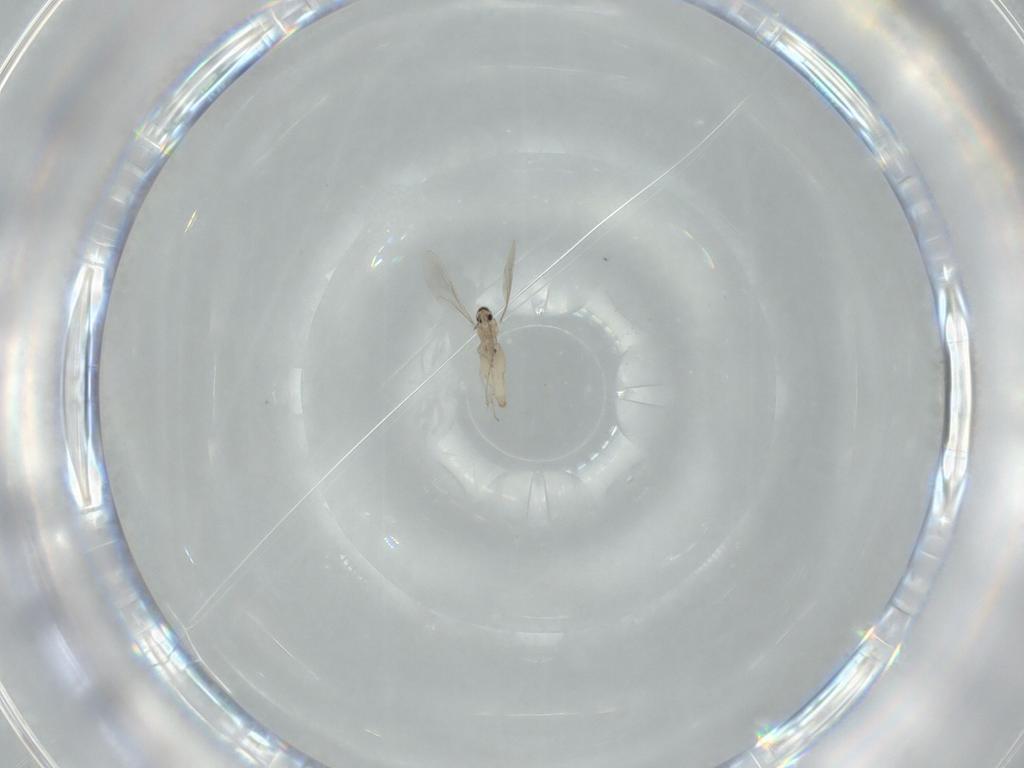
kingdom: Animalia
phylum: Arthropoda
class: Insecta
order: Diptera
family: Cecidomyiidae
